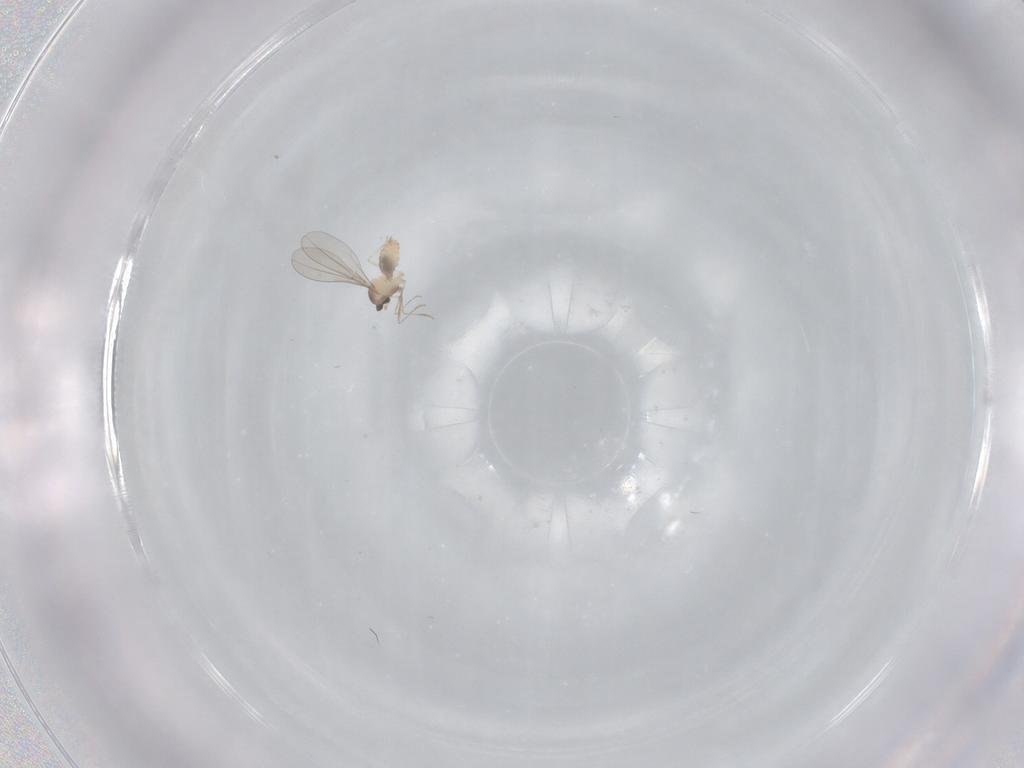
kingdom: Animalia
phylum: Arthropoda
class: Insecta
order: Diptera
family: Cecidomyiidae
